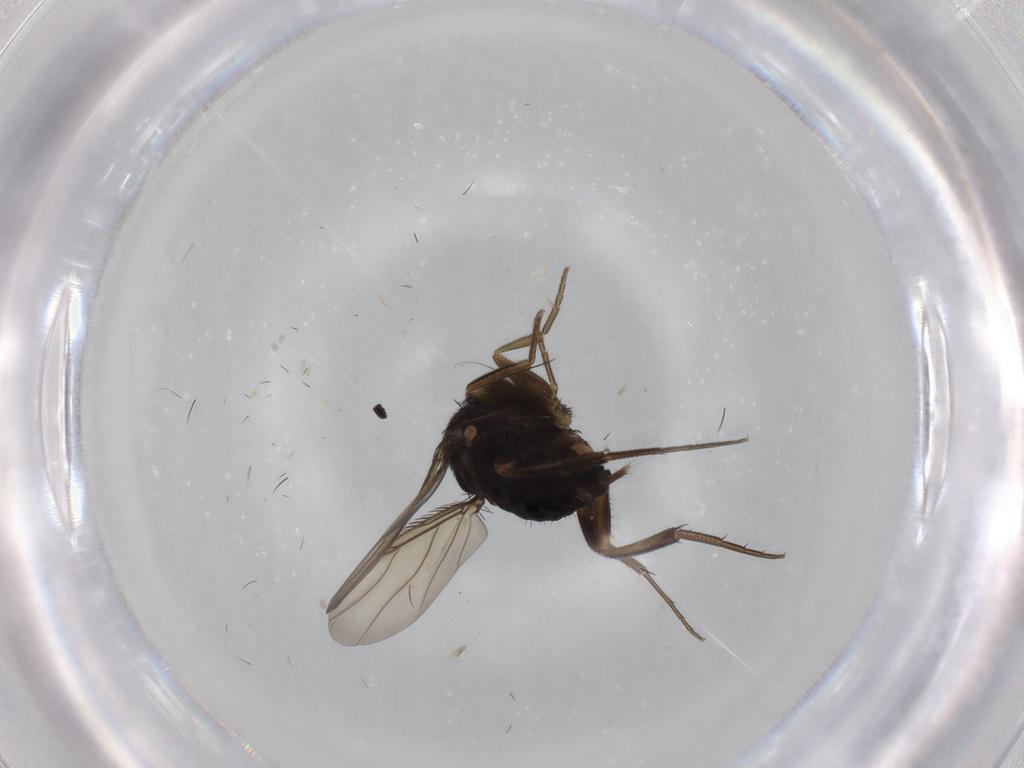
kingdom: Animalia
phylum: Arthropoda
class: Insecta
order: Diptera
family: Phoridae
